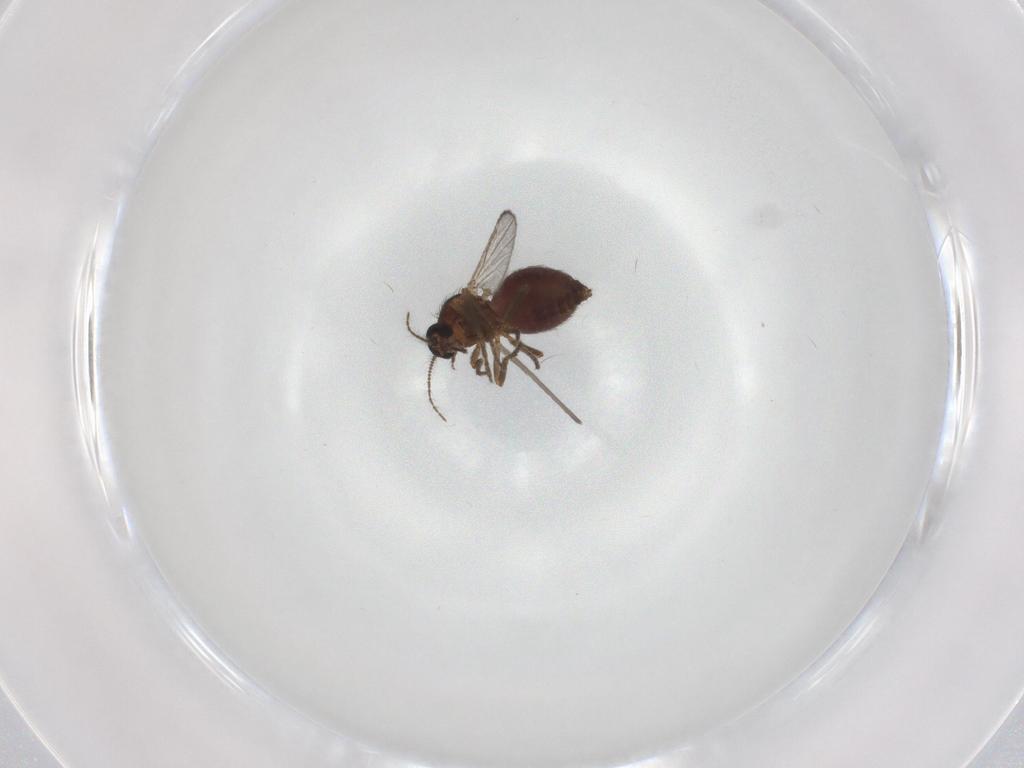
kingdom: Animalia
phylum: Arthropoda
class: Insecta
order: Diptera
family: Ceratopogonidae
